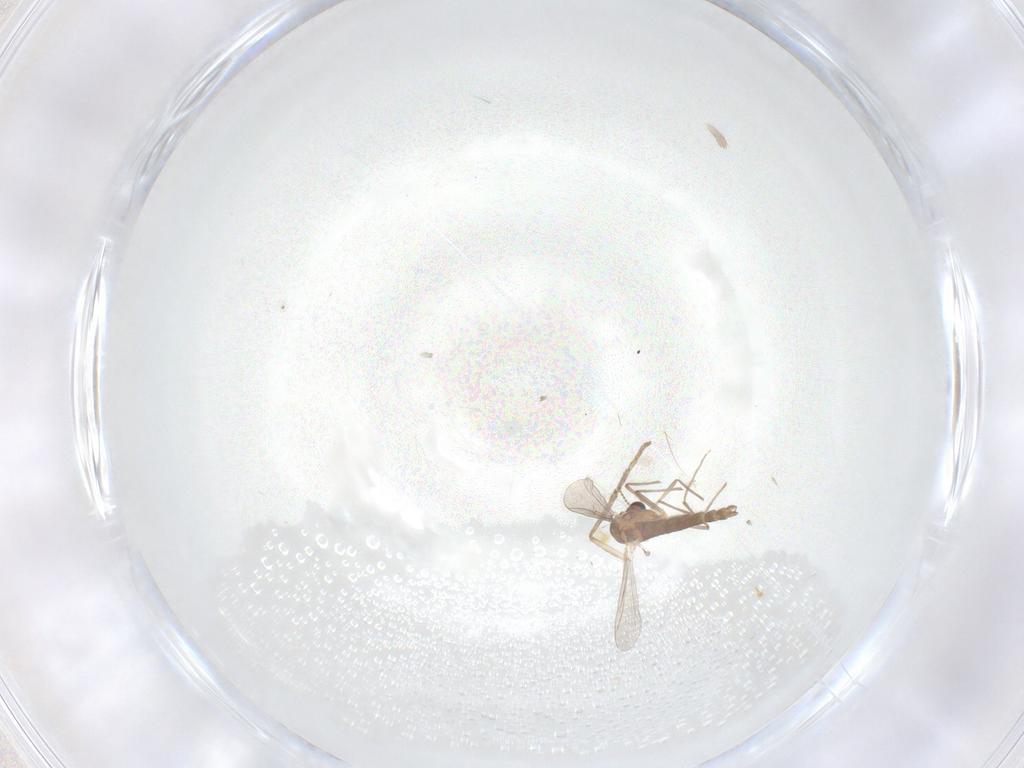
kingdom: Animalia
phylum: Arthropoda
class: Insecta
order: Diptera
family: Chironomidae
